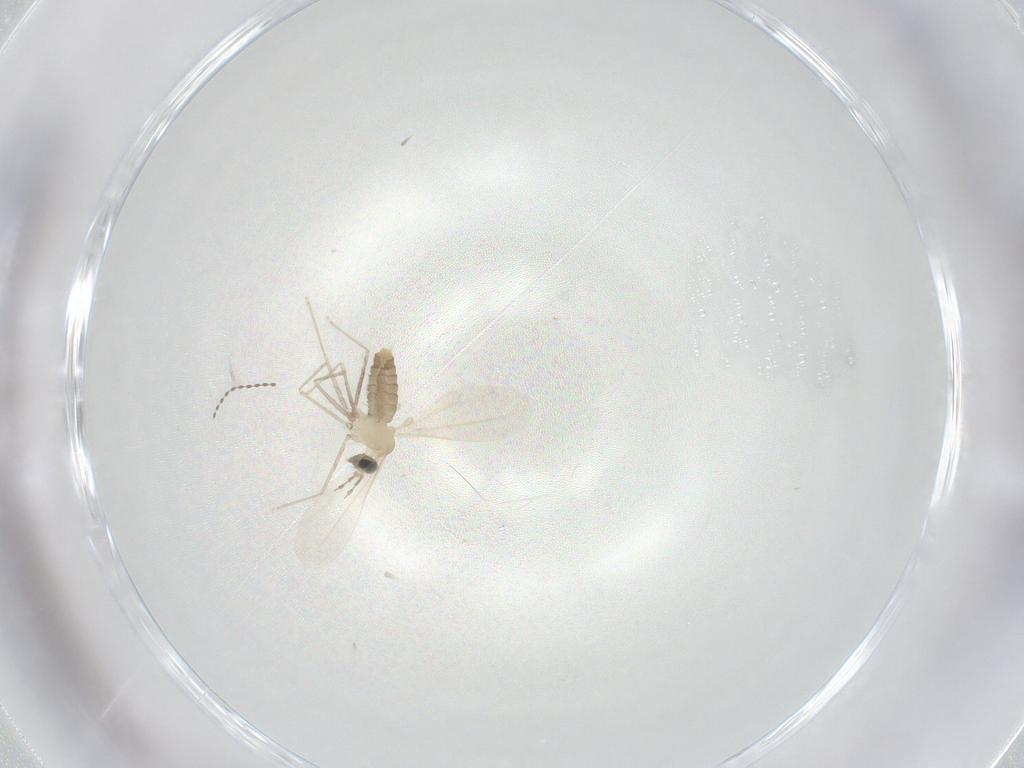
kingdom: Animalia
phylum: Arthropoda
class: Insecta
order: Diptera
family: Cecidomyiidae
